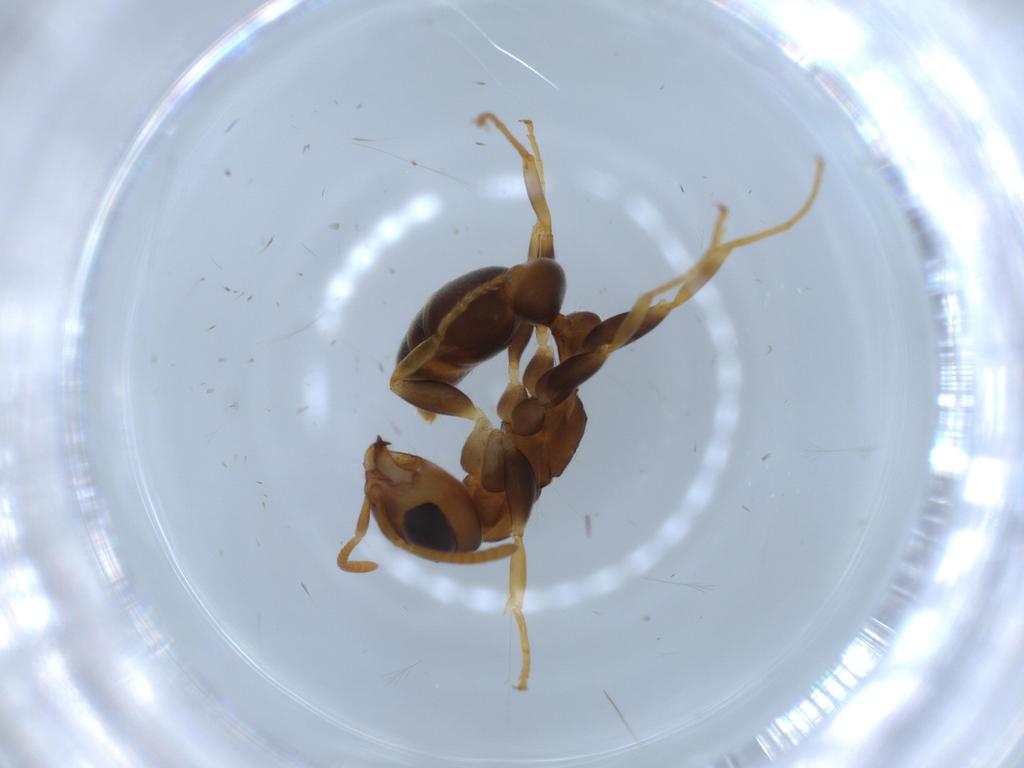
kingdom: Animalia
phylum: Arthropoda
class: Insecta
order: Hymenoptera
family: Formicidae
